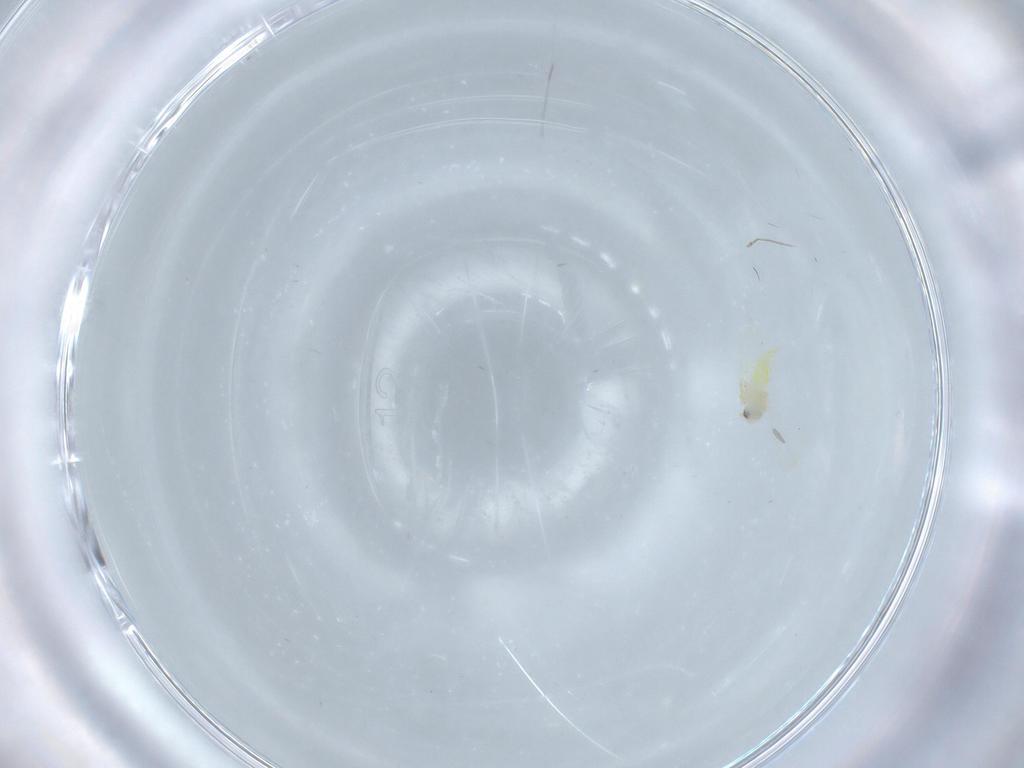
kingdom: Animalia
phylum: Arthropoda
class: Insecta
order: Hemiptera
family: Aleyrodidae
